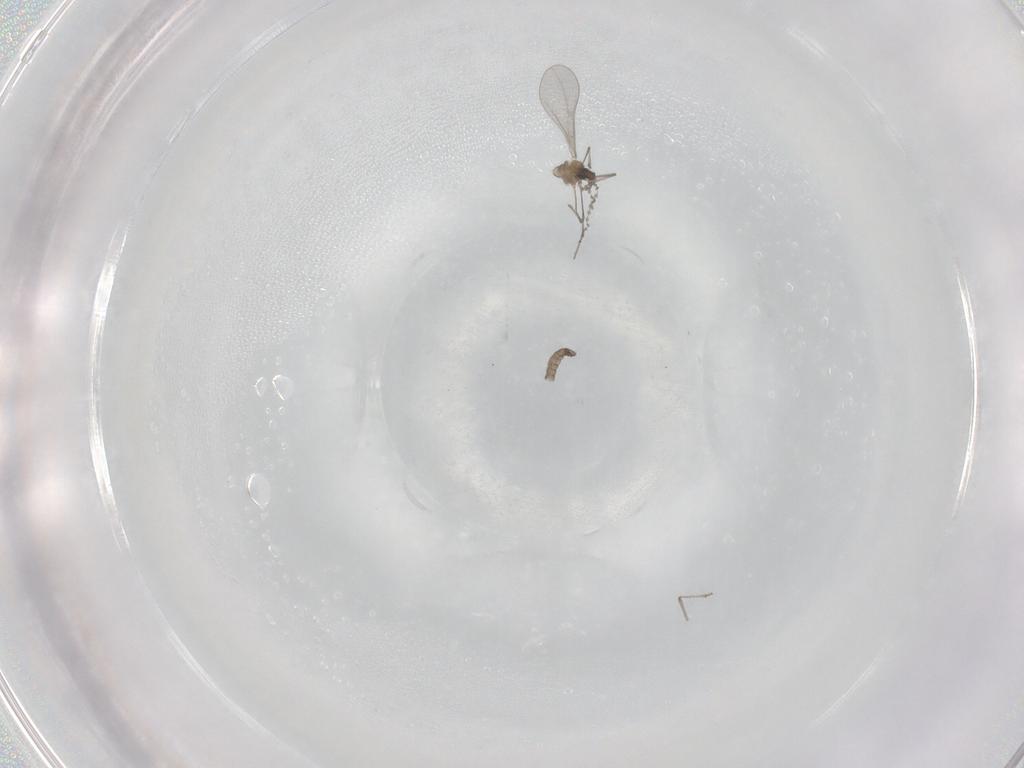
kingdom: Animalia
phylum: Arthropoda
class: Insecta
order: Diptera
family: Cecidomyiidae
